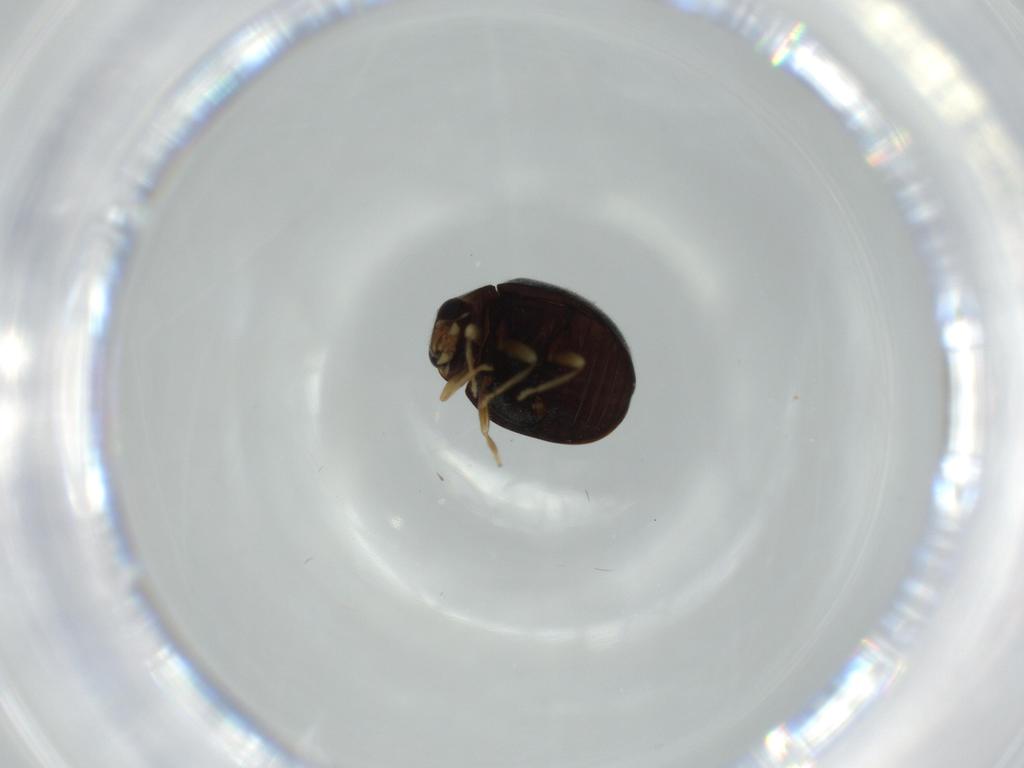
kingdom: Animalia
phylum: Arthropoda
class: Insecta
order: Coleoptera
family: Coccinellidae
